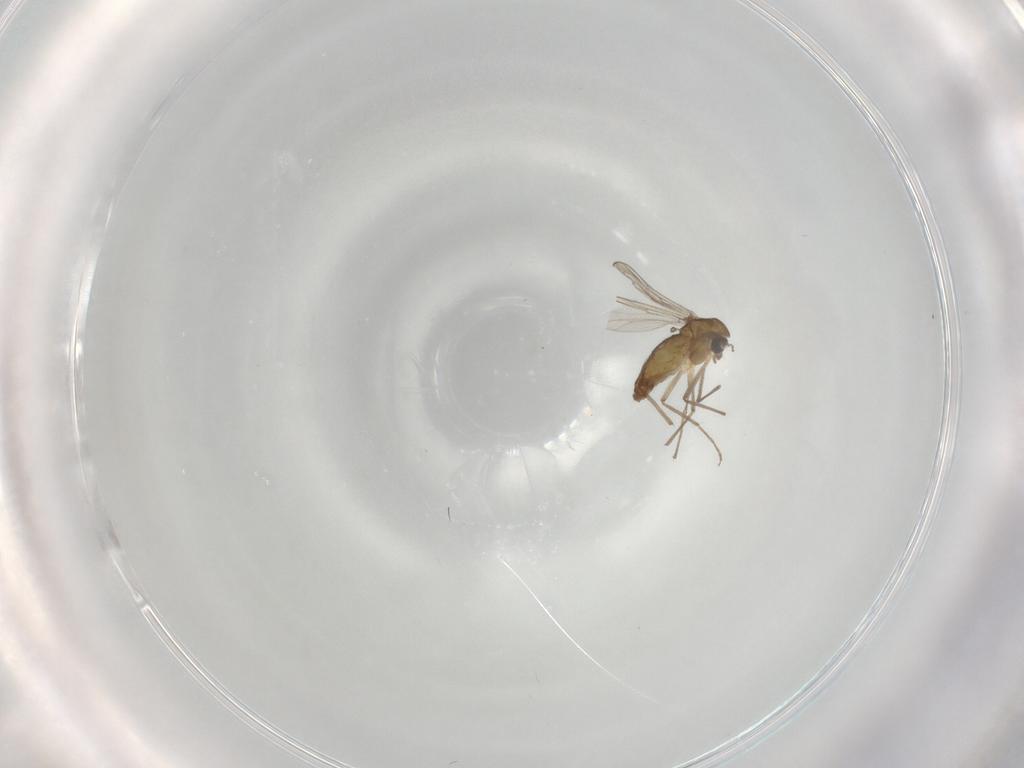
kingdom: Animalia
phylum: Arthropoda
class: Insecta
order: Diptera
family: Chironomidae
